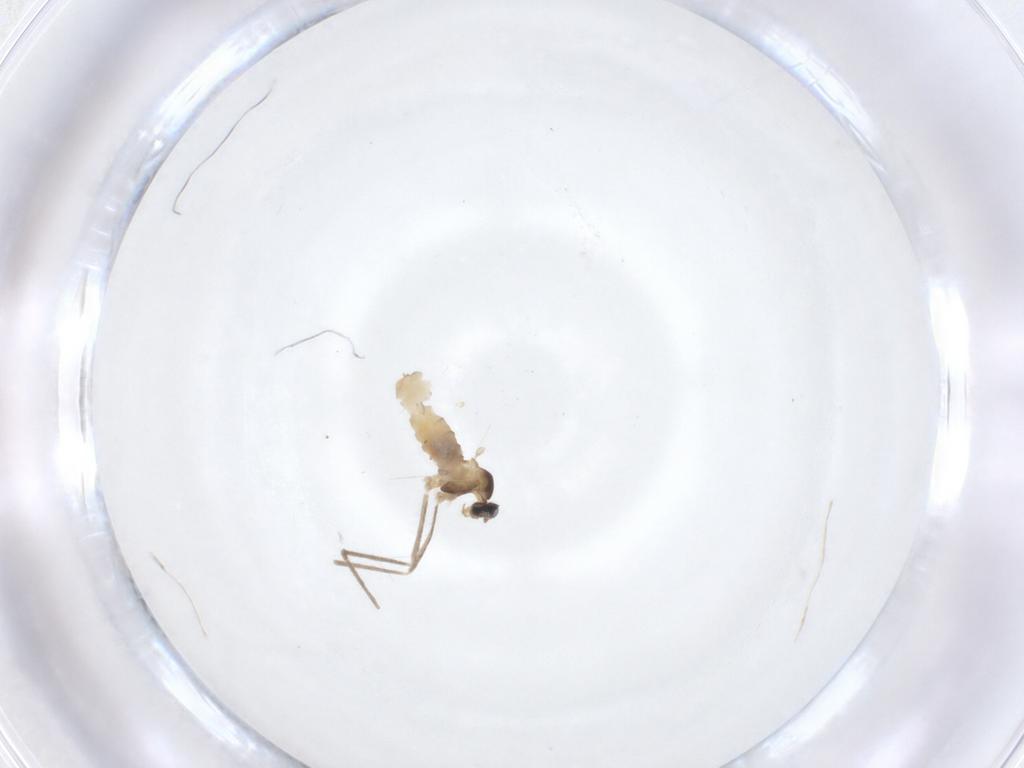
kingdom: Animalia
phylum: Arthropoda
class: Insecta
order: Diptera
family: Cecidomyiidae
